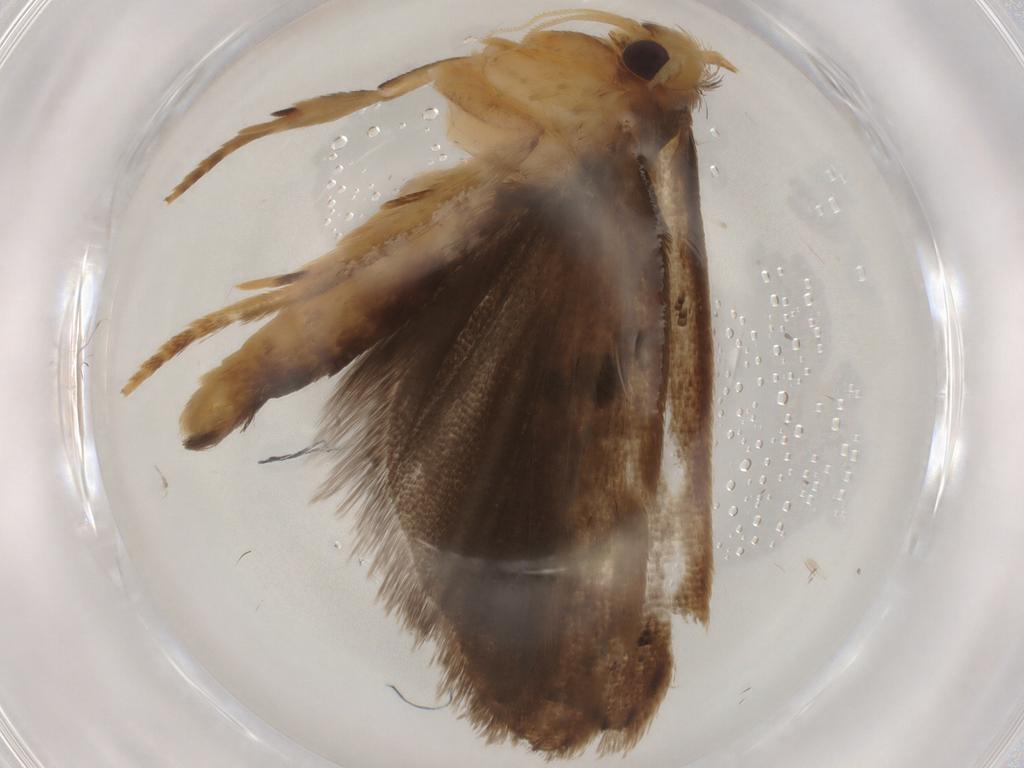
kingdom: Animalia
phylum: Arthropoda
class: Insecta
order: Lepidoptera
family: Depressariidae
